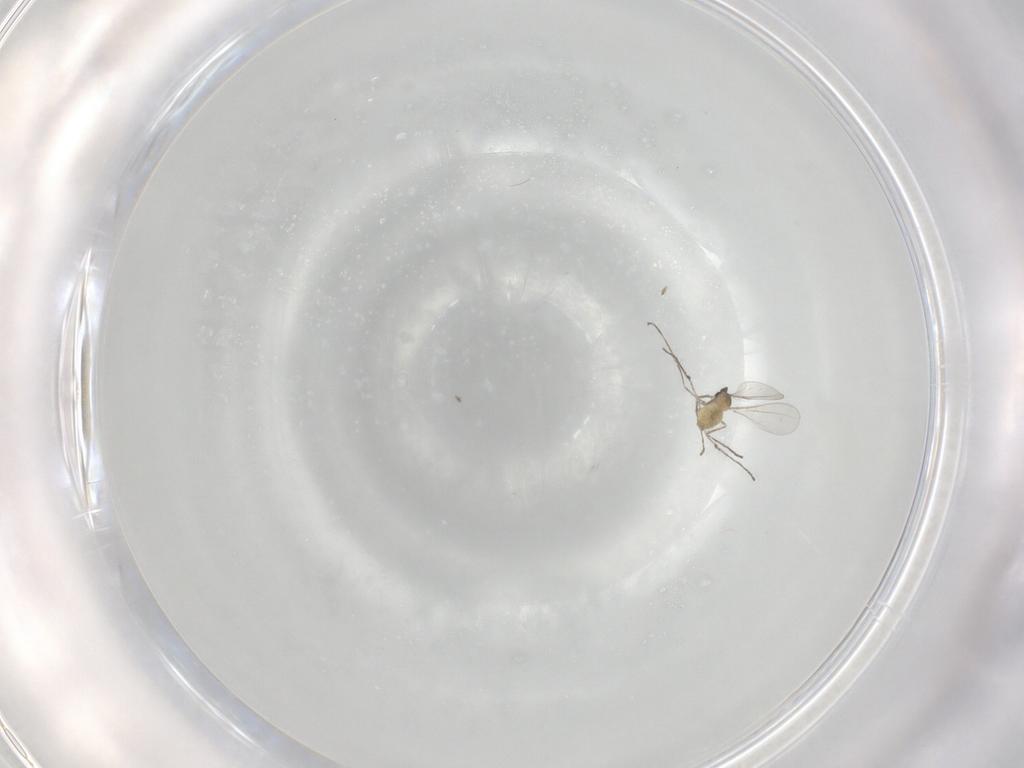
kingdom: Animalia
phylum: Arthropoda
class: Insecta
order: Diptera
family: Cecidomyiidae
